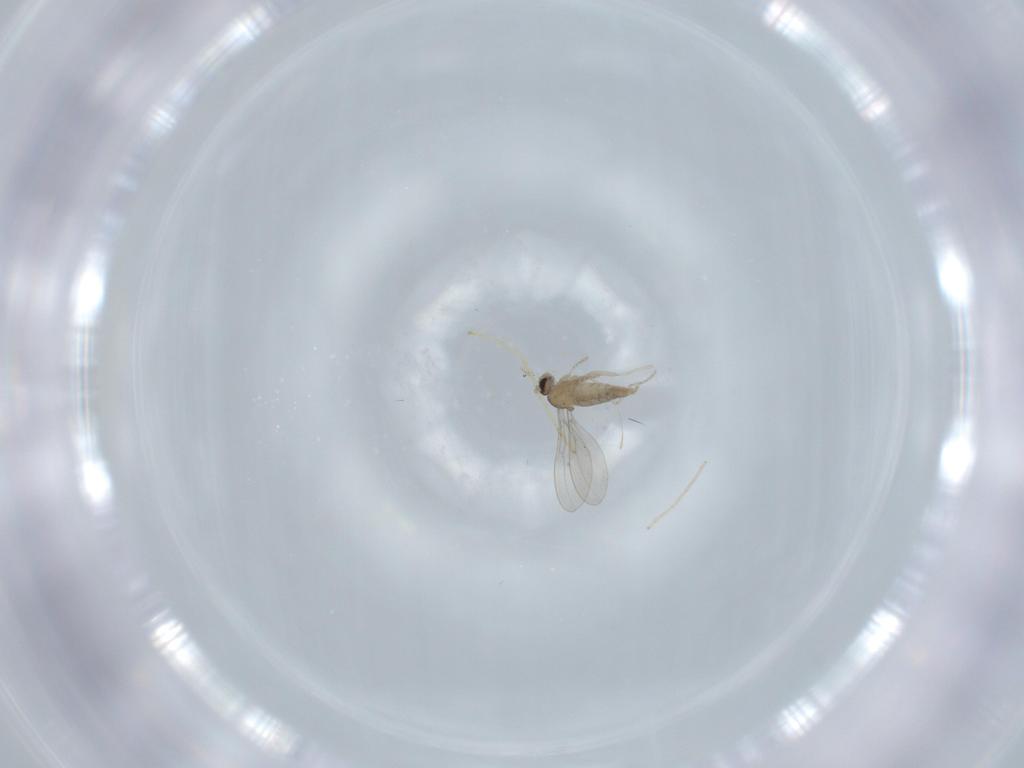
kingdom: Animalia
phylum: Arthropoda
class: Insecta
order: Diptera
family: Cecidomyiidae
